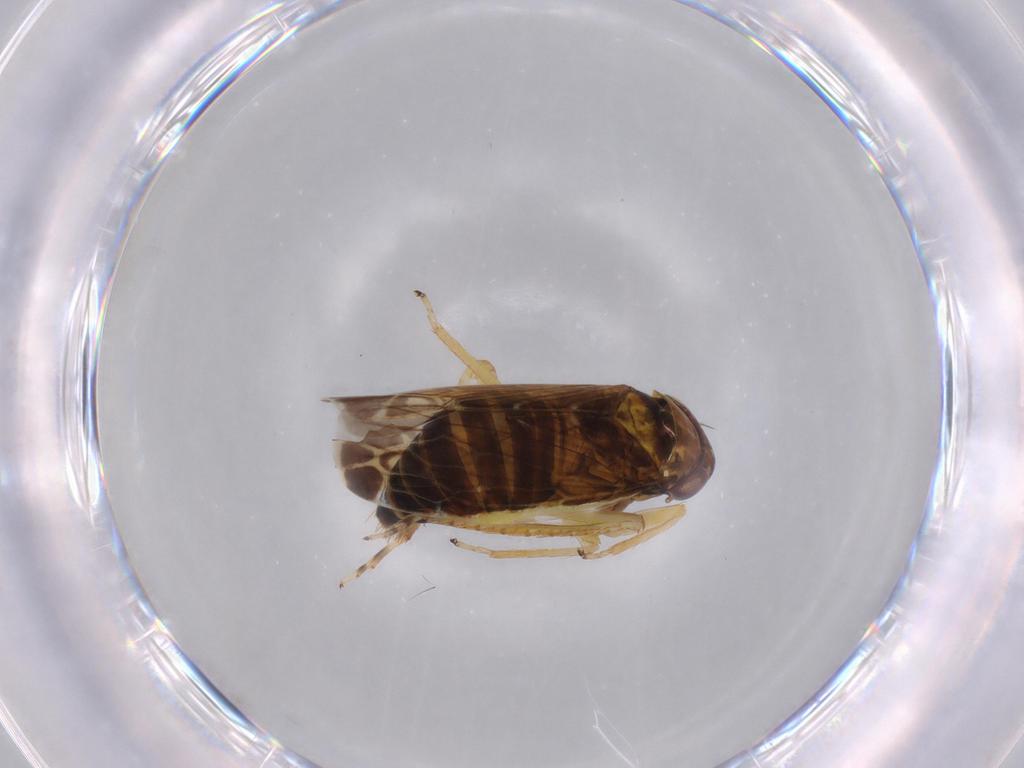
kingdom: Animalia
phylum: Arthropoda
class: Insecta
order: Hemiptera
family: Cicadellidae
